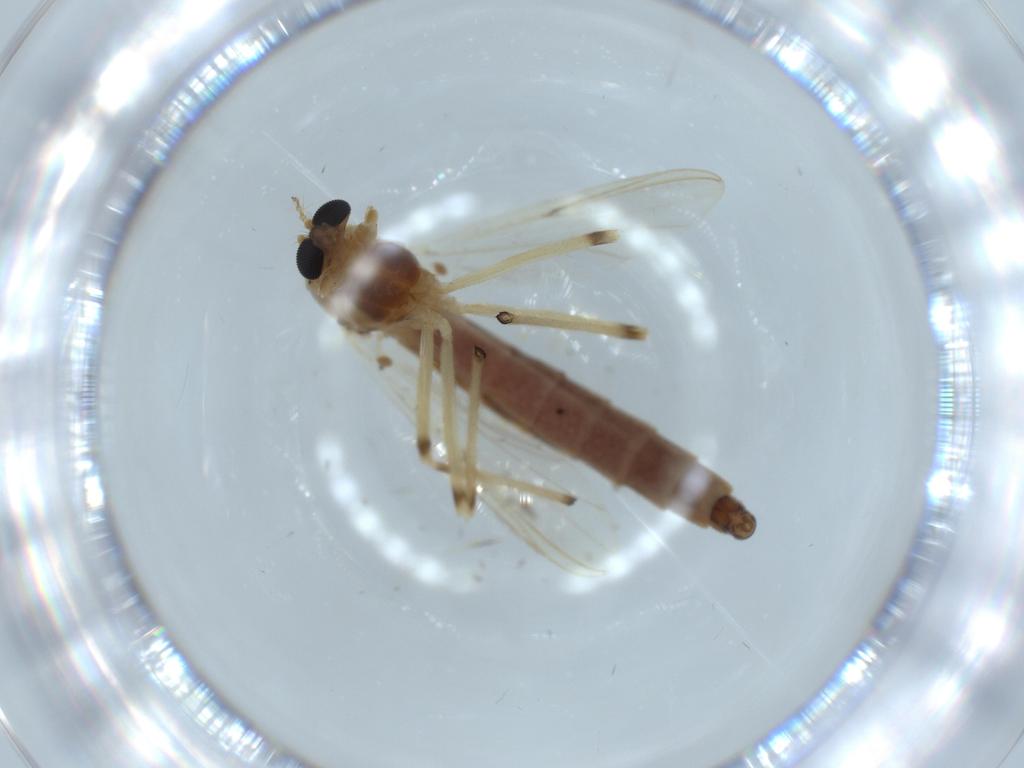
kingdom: Animalia
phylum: Arthropoda
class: Insecta
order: Diptera
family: Chironomidae
